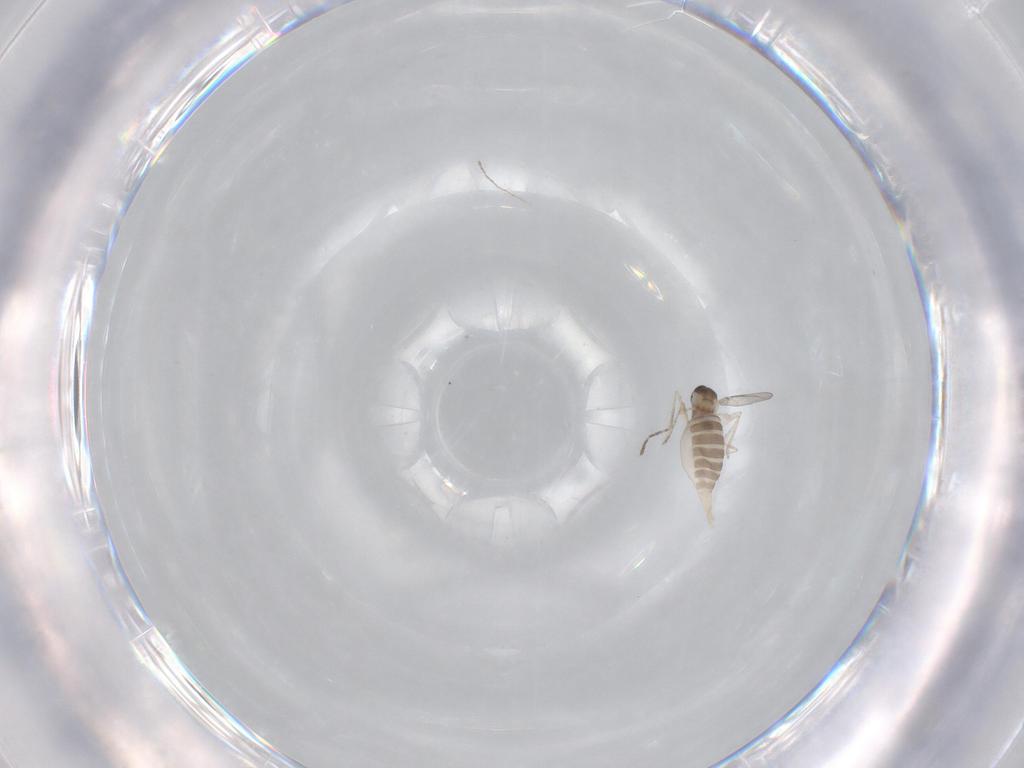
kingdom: Animalia
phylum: Arthropoda
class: Insecta
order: Diptera
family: Cecidomyiidae
